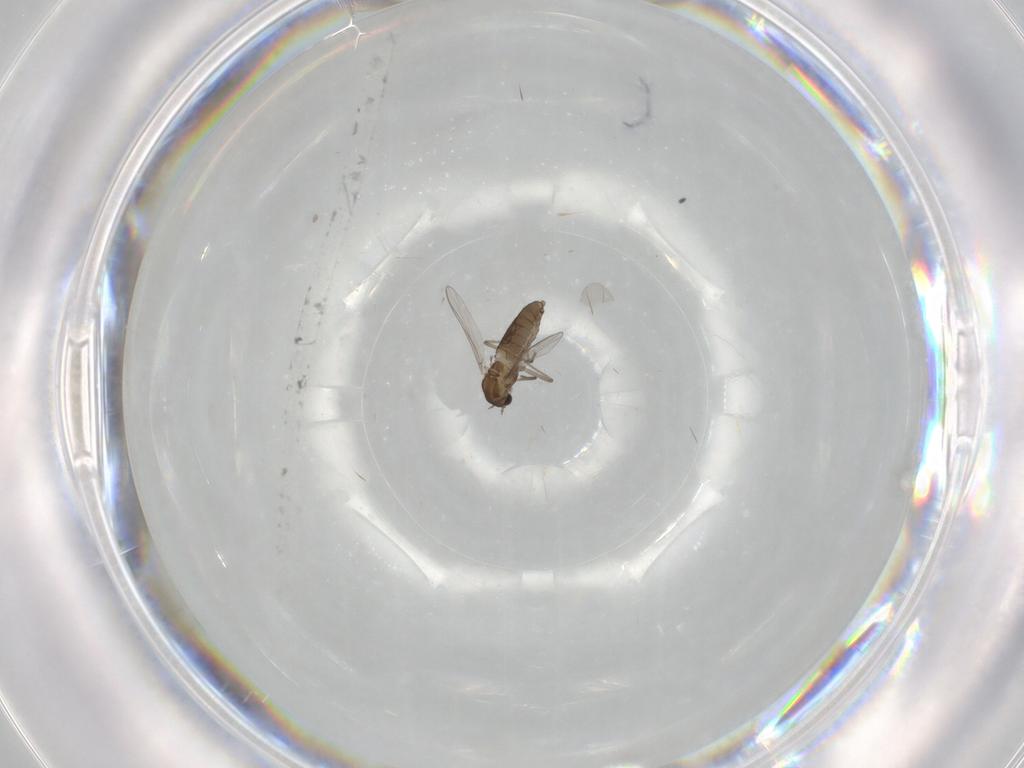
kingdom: Animalia
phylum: Arthropoda
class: Insecta
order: Diptera
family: Chironomidae
